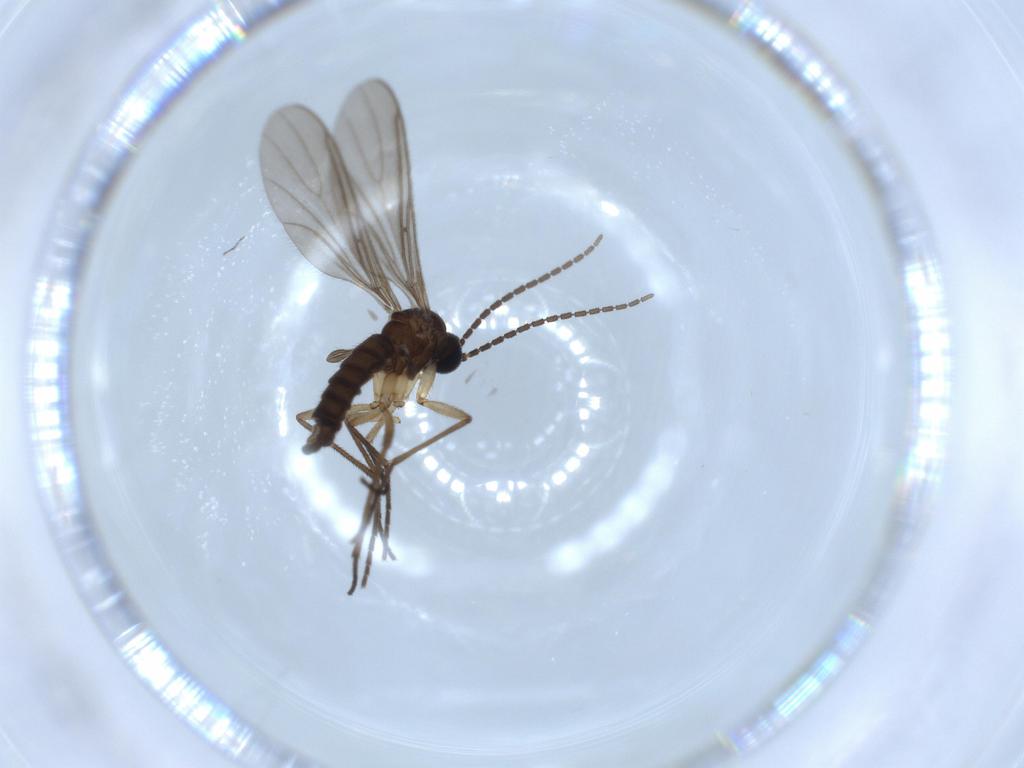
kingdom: Animalia
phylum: Arthropoda
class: Insecta
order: Diptera
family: Sciaridae
